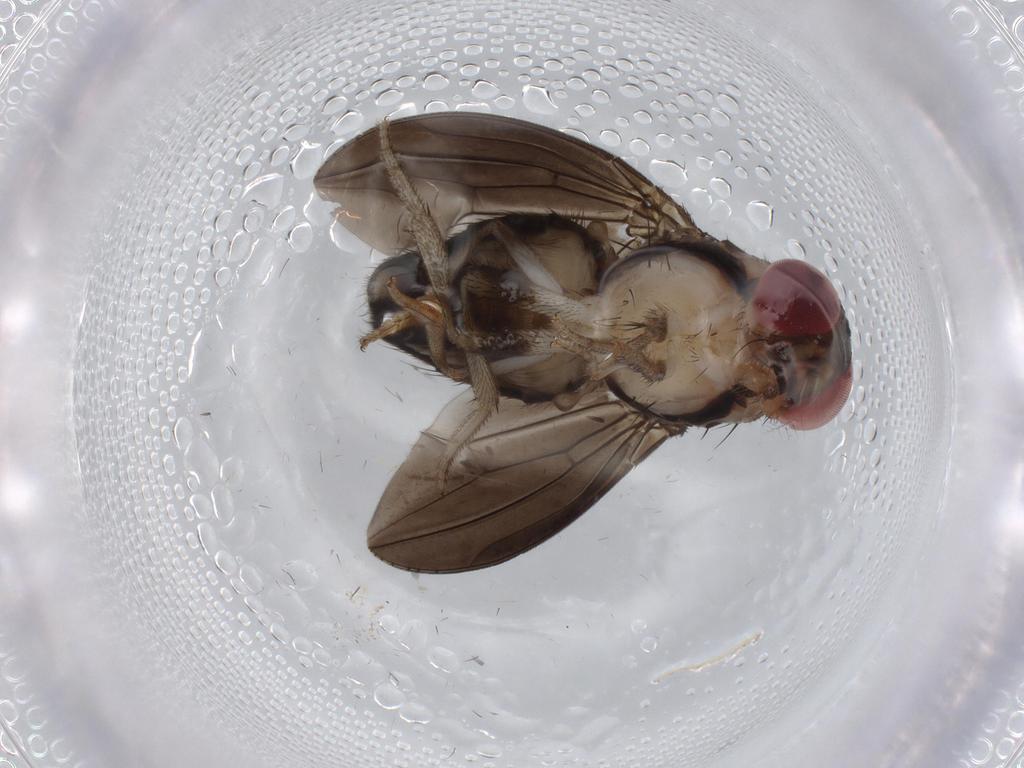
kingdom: Animalia
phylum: Arthropoda
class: Insecta
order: Diptera
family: Drosophilidae
